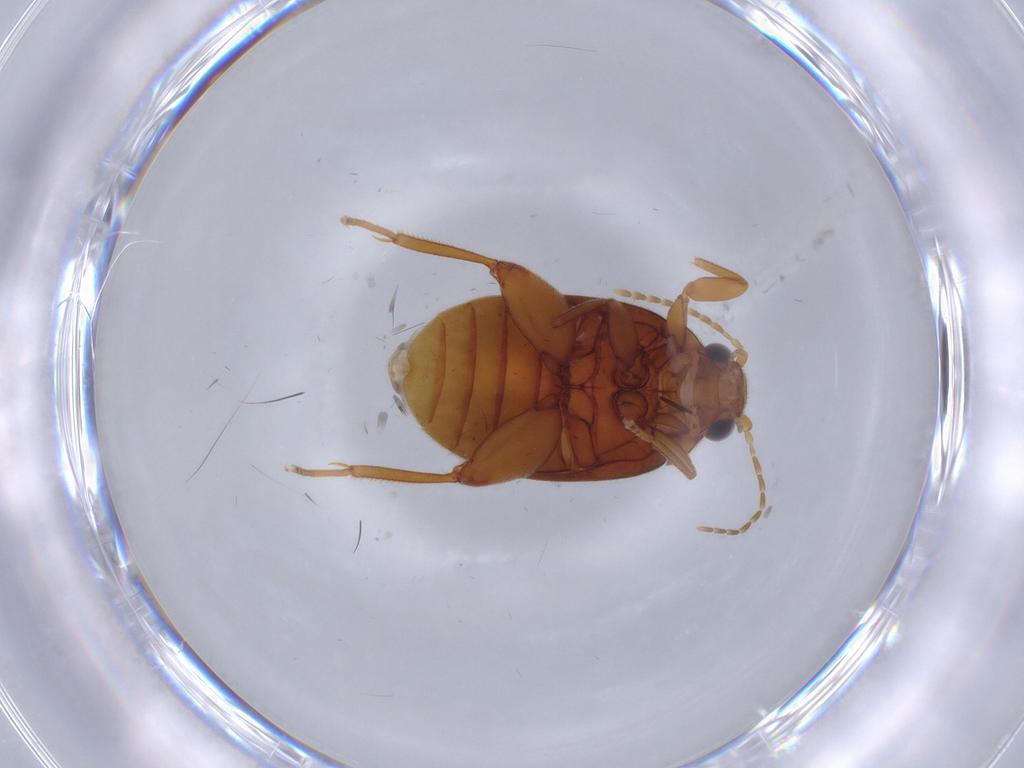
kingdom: Animalia
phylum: Arthropoda
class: Insecta
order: Coleoptera
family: Scirtidae
